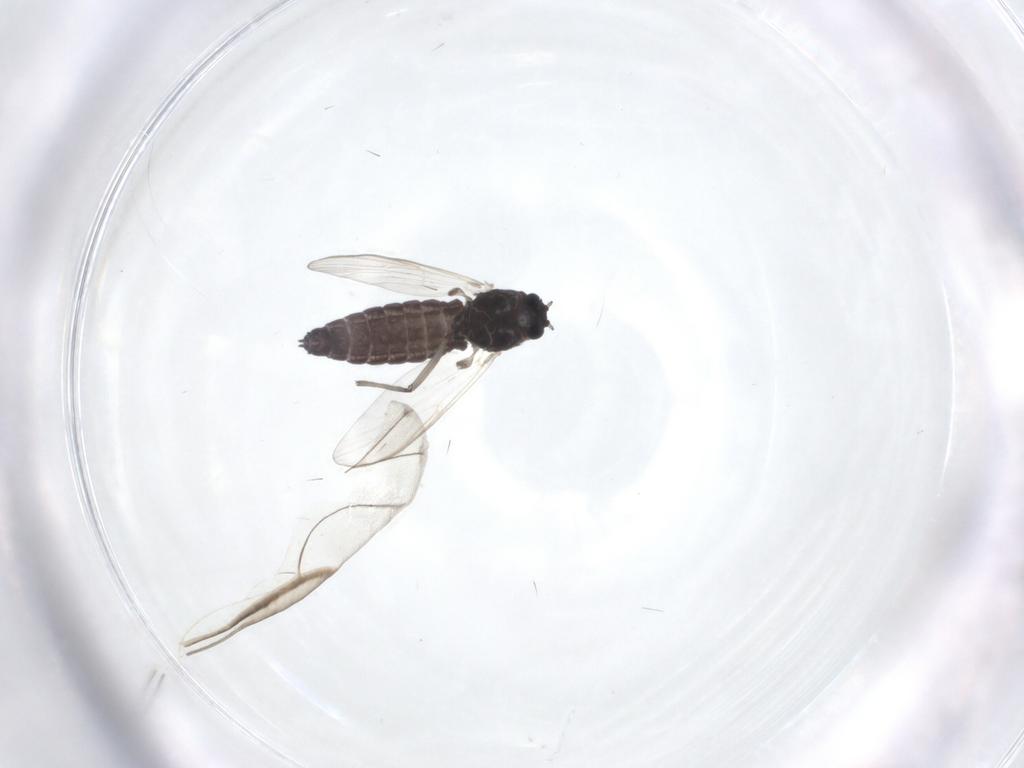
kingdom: Animalia
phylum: Arthropoda
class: Insecta
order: Diptera
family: Chironomidae
